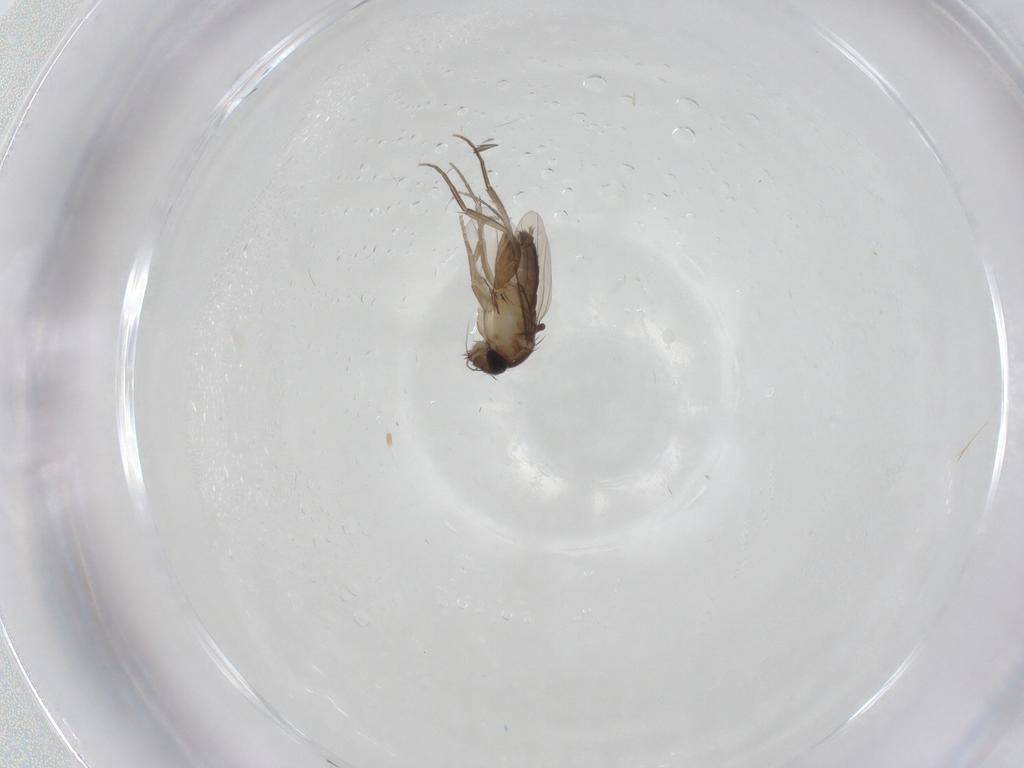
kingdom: Animalia
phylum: Arthropoda
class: Insecta
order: Diptera
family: Phoridae
